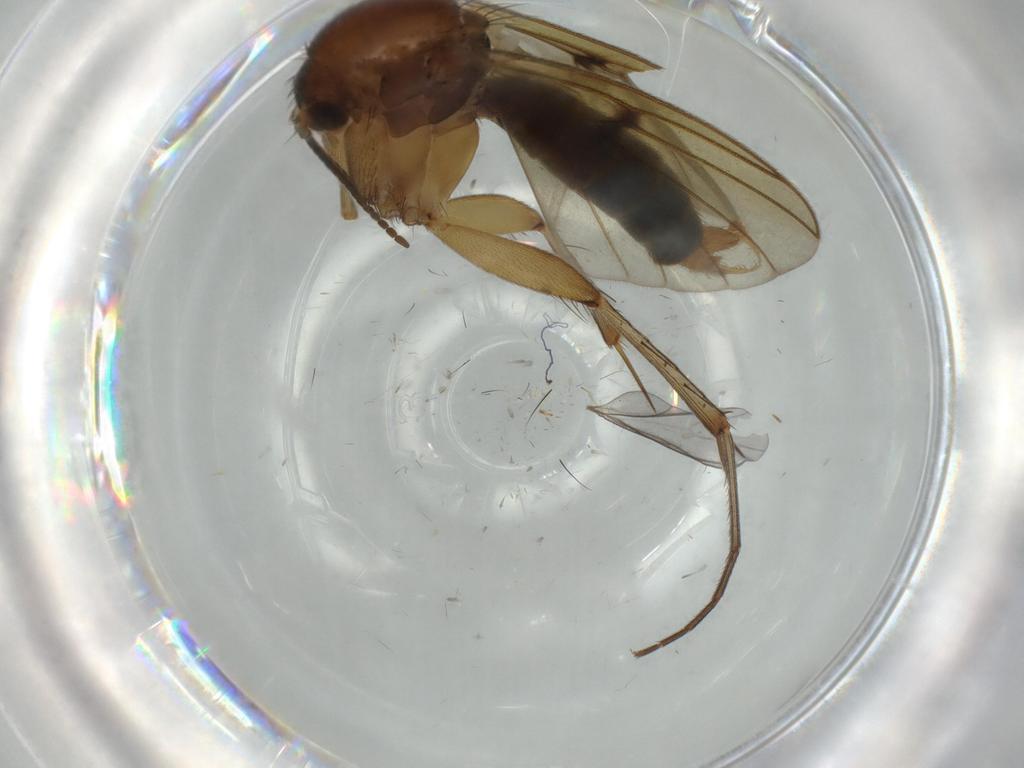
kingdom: Animalia
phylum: Arthropoda
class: Insecta
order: Diptera
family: Mycetophilidae
